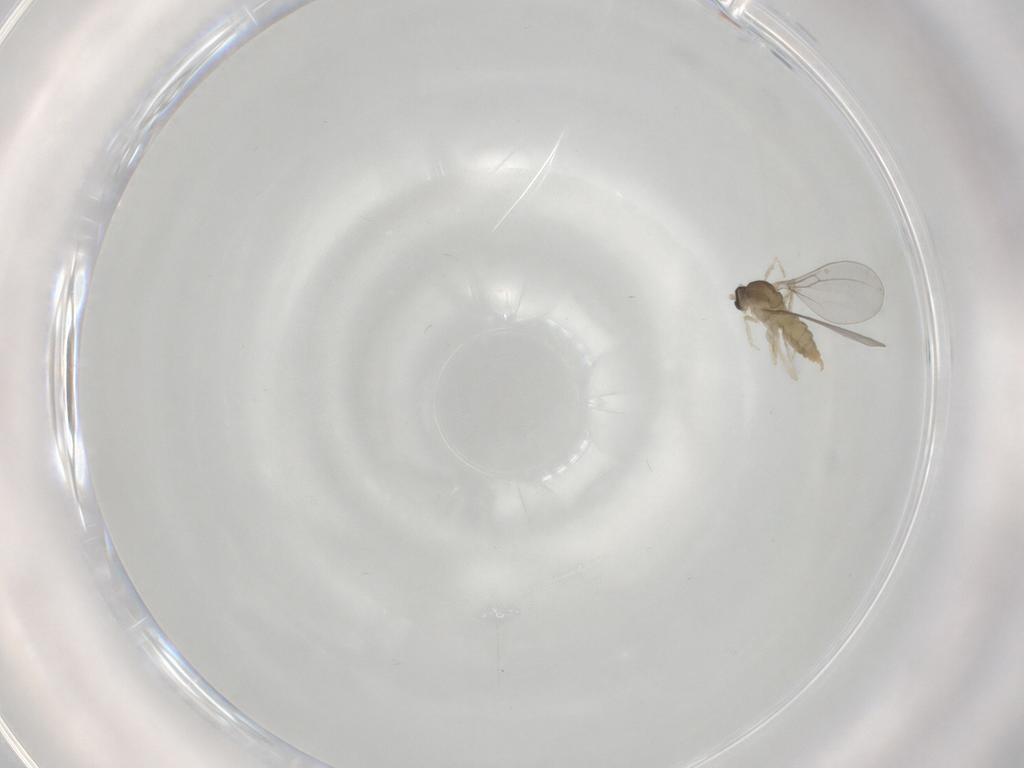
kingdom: Animalia
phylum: Arthropoda
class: Insecta
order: Diptera
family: Cecidomyiidae
